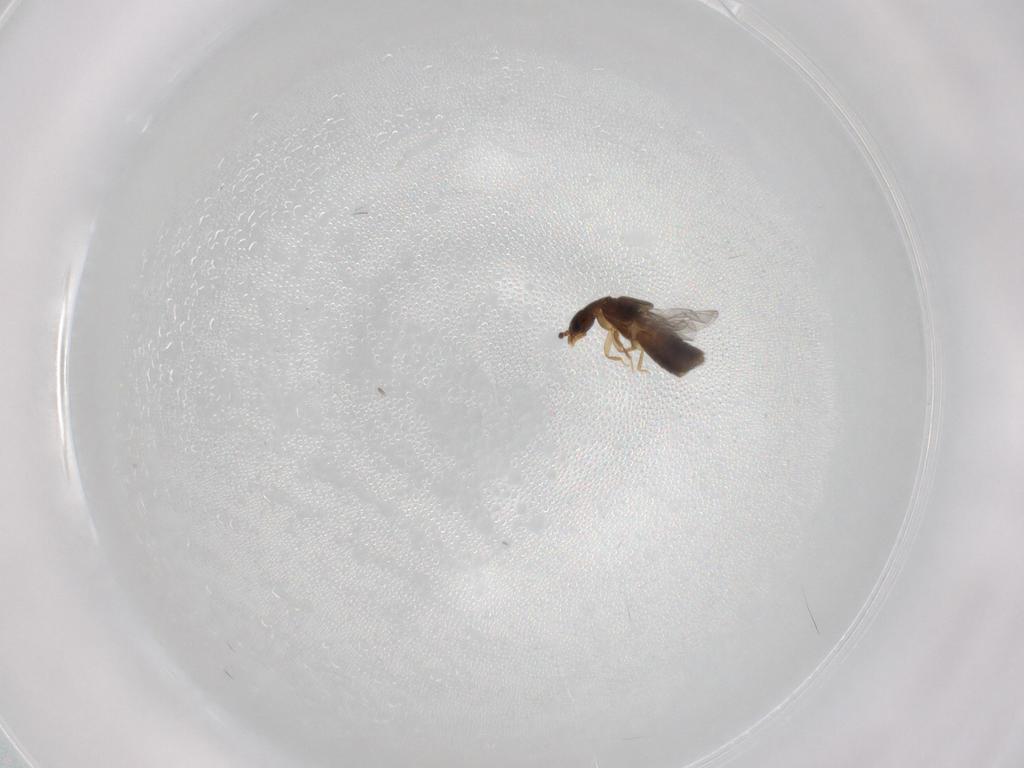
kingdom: Animalia
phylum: Arthropoda
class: Insecta
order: Coleoptera
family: Staphylinidae
